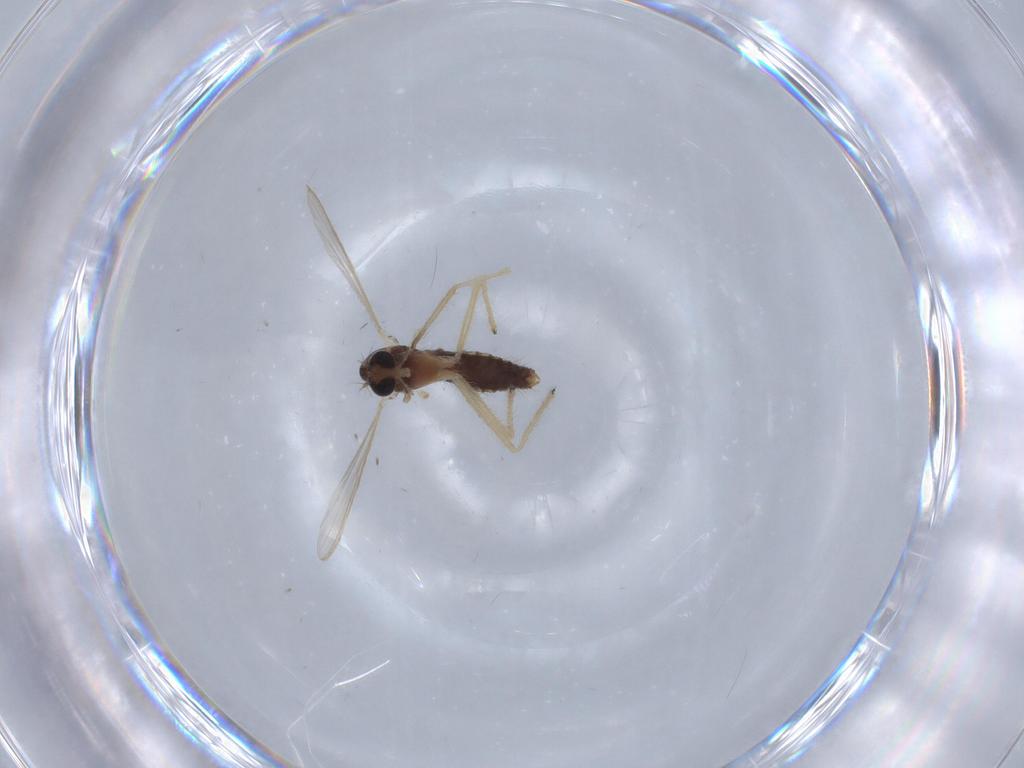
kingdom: Animalia
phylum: Arthropoda
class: Insecta
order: Diptera
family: Chironomidae
